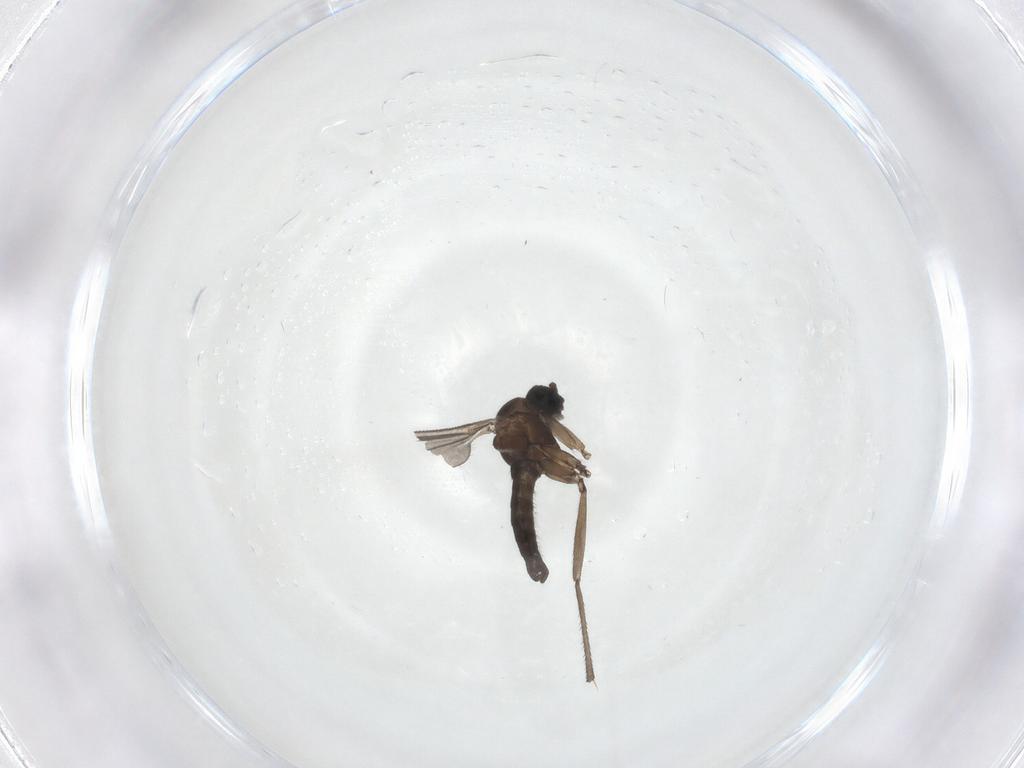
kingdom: Animalia
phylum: Arthropoda
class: Insecta
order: Diptera
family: Sciaridae
